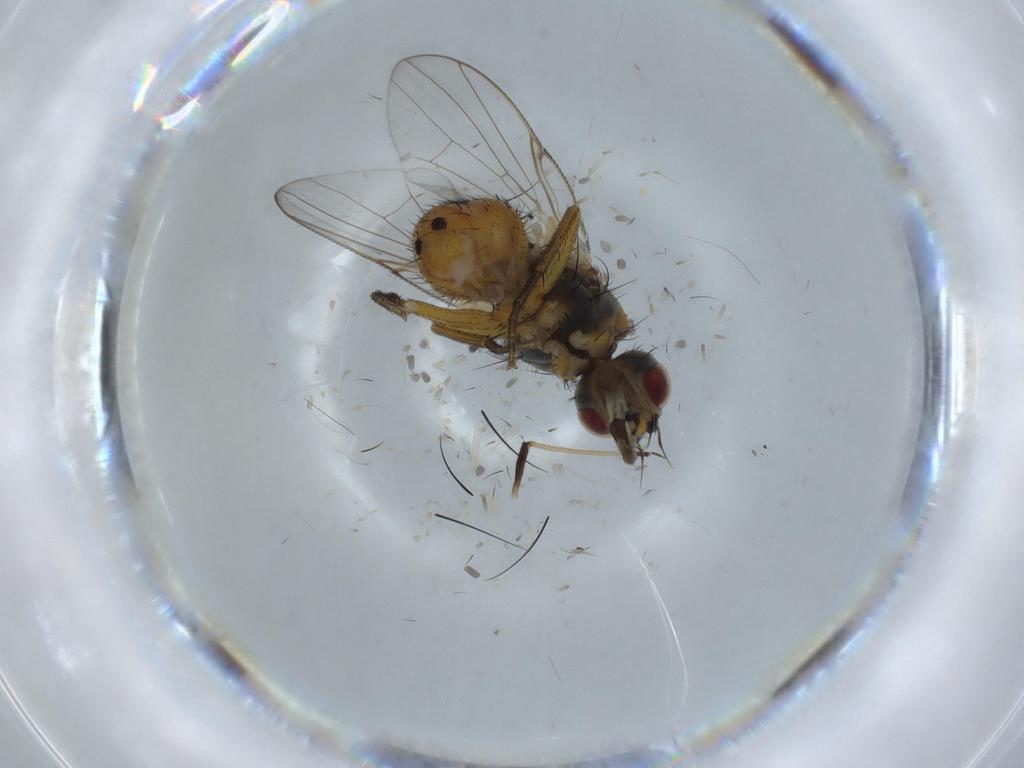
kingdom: Animalia
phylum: Arthropoda
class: Insecta
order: Diptera
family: Muscidae
